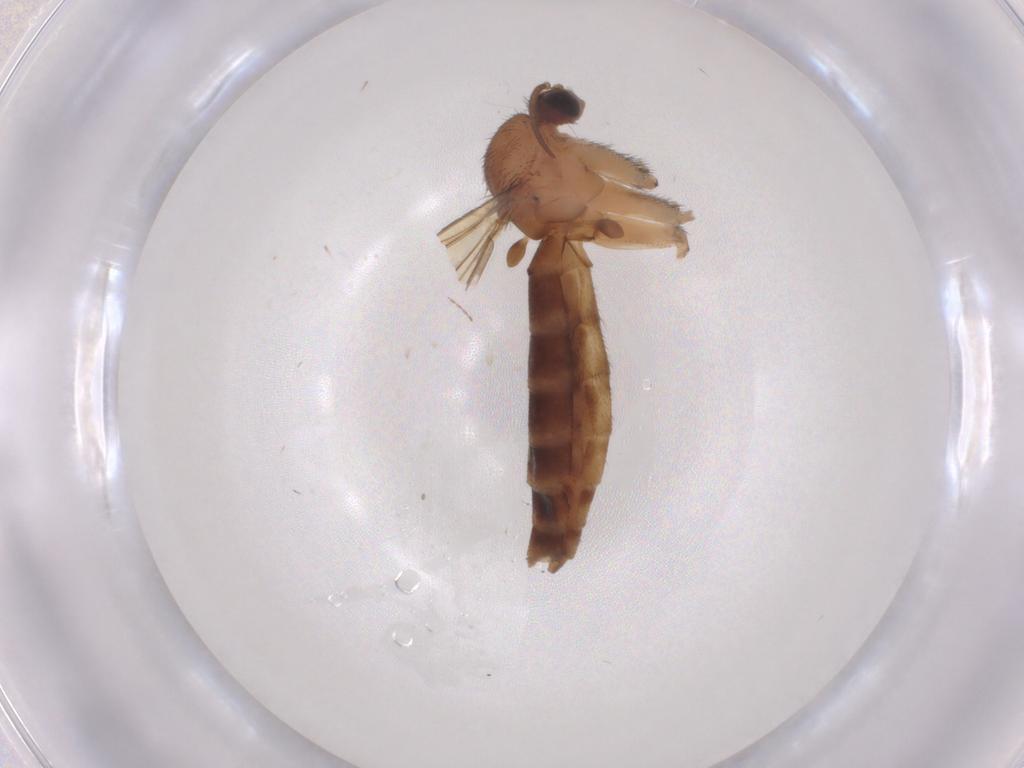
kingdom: Animalia
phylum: Arthropoda
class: Insecta
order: Diptera
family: Keroplatidae
